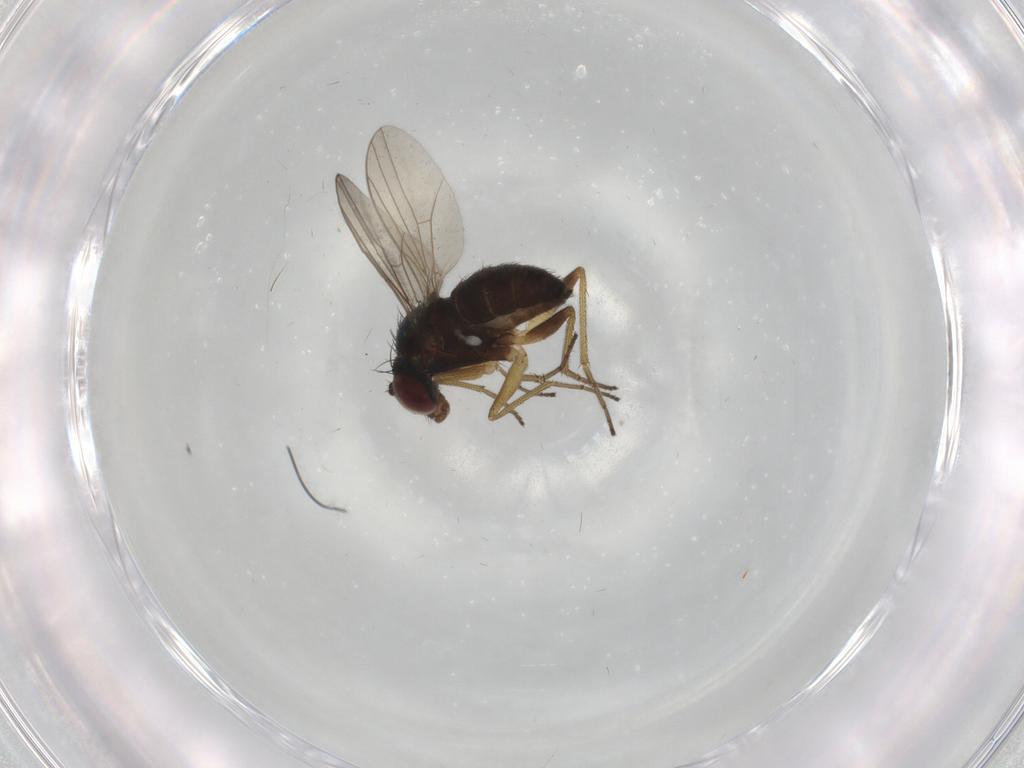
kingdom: Animalia
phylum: Arthropoda
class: Insecta
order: Diptera
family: Dolichopodidae
